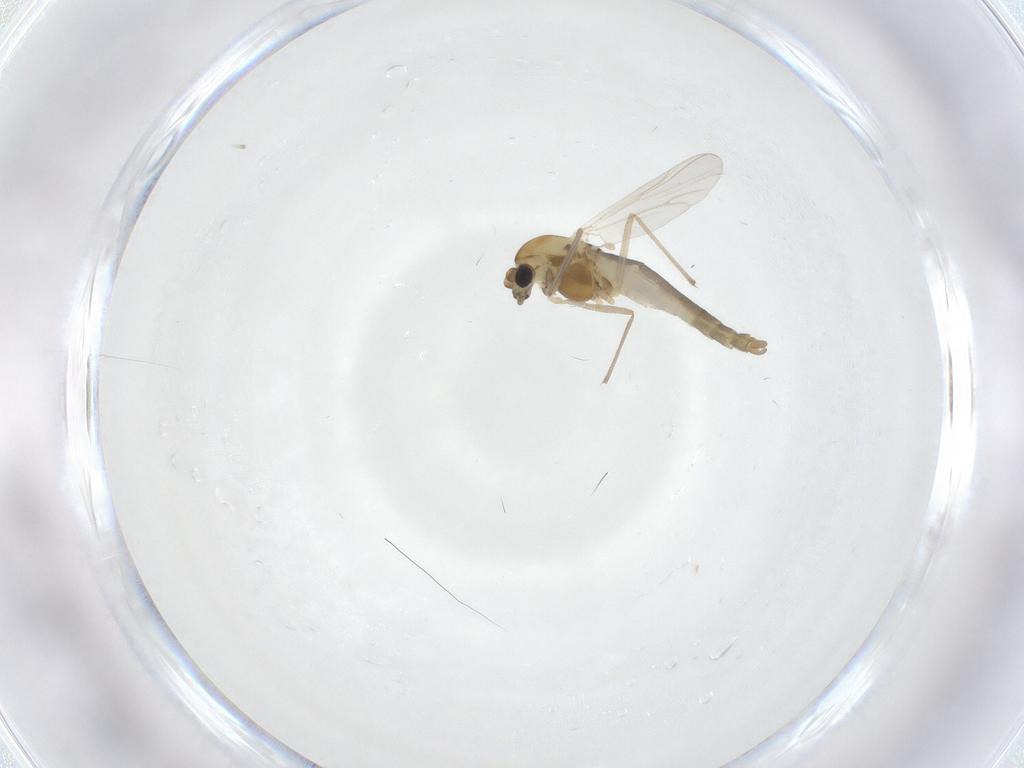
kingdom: Animalia
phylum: Arthropoda
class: Insecta
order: Diptera
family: Chironomidae
